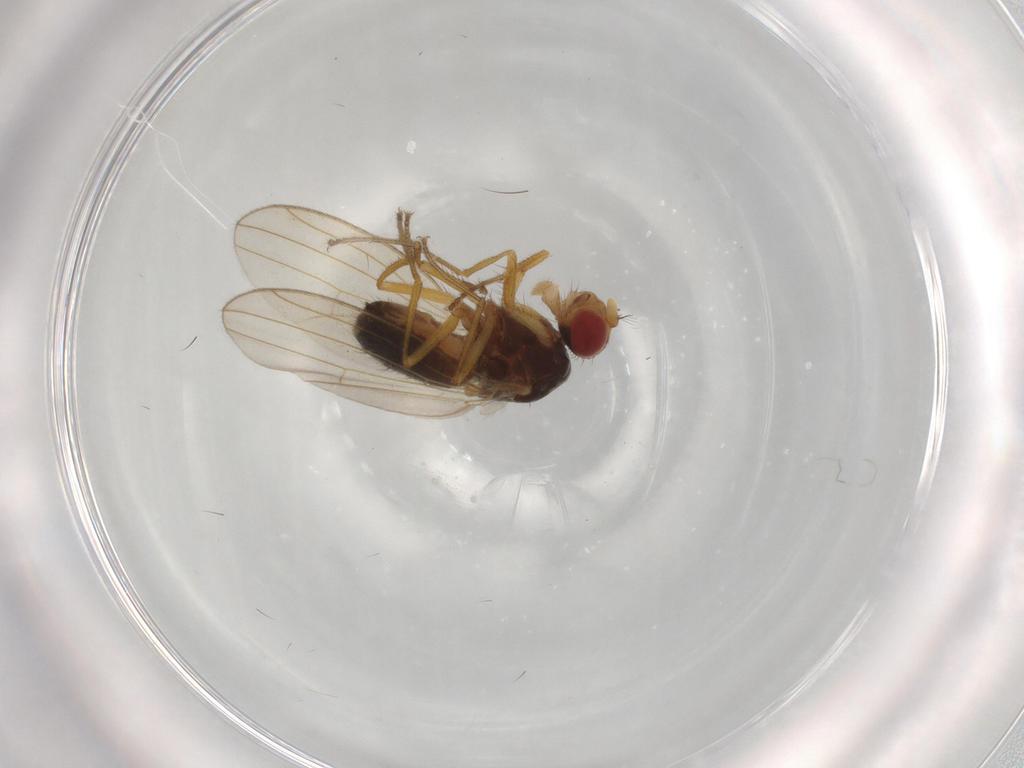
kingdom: Animalia
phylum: Arthropoda
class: Insecta
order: Diptera
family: Drosophilidae
